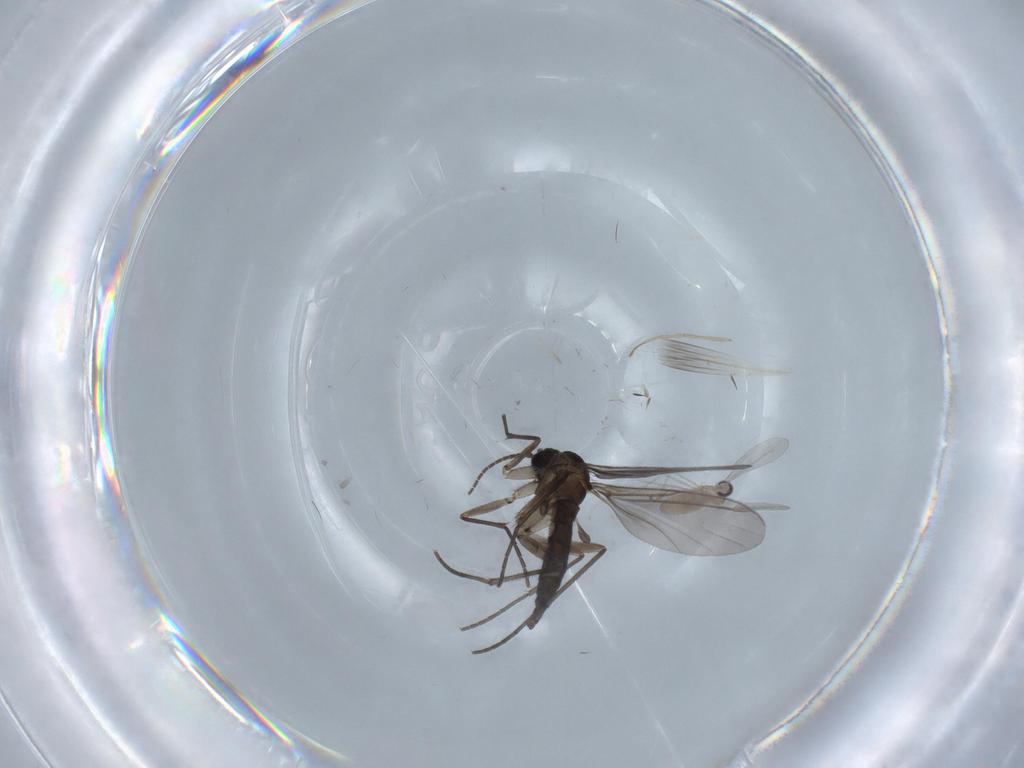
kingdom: Animalia
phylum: Arthropoda
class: Insecta
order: Diptera
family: Sciaridae
